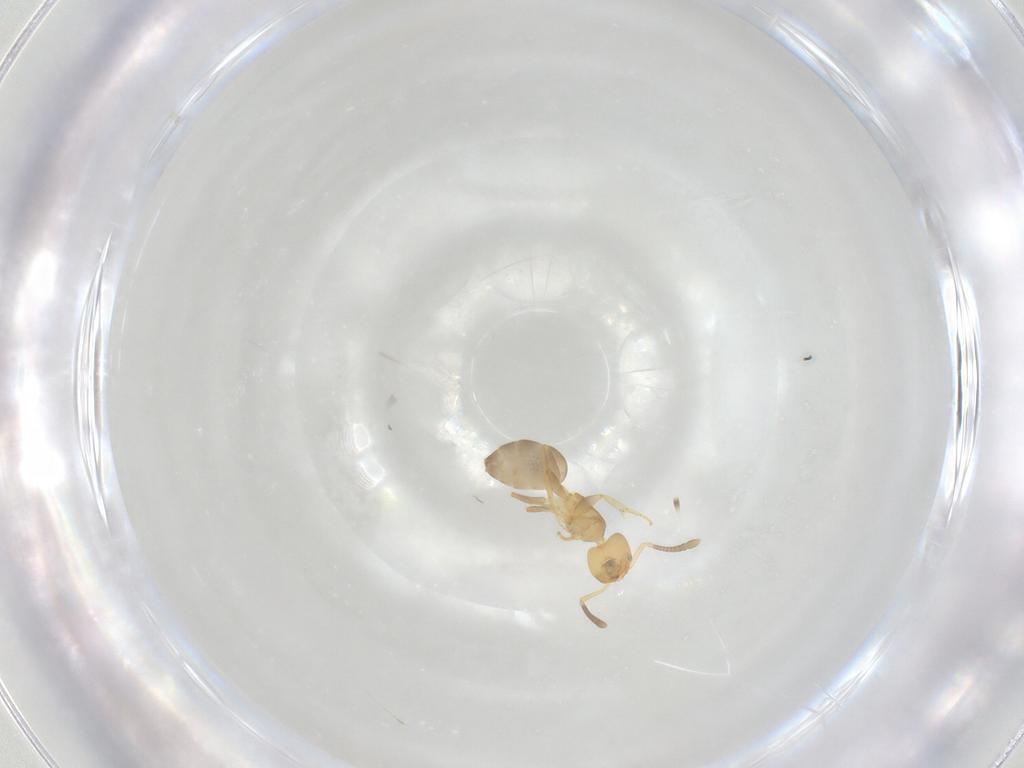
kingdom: Animalia
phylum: Arthropoda
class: Insecta
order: Hymenoptera
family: Formicidae
